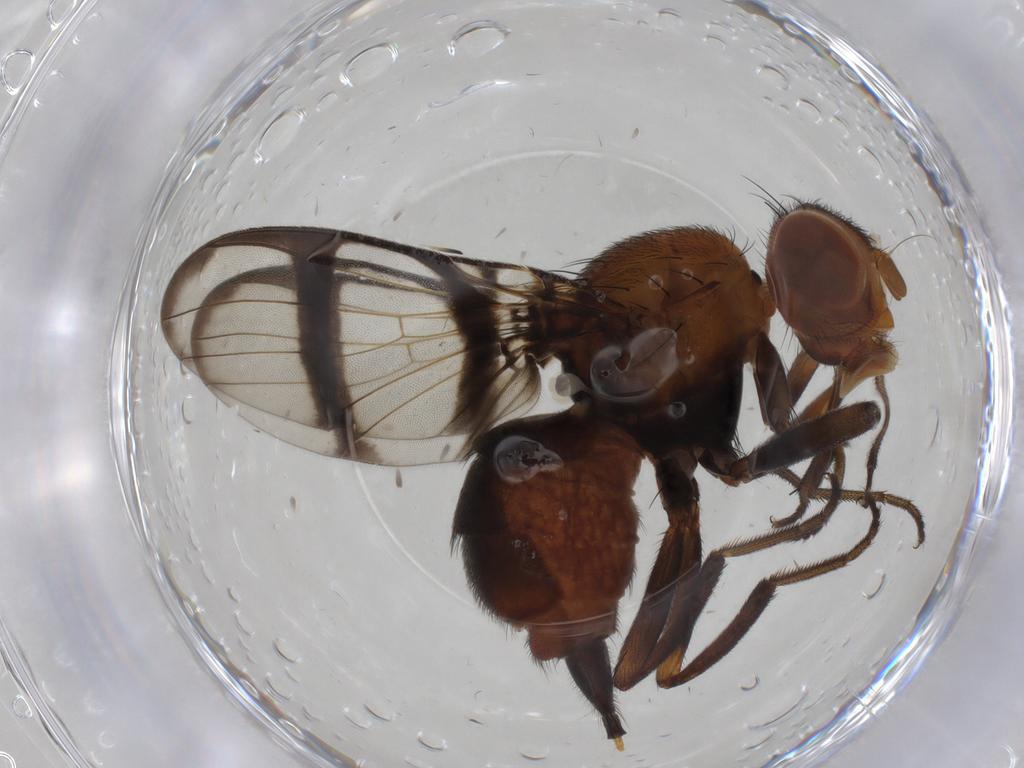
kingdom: Animalia
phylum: Arthropoda
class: Insecta
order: Diptera
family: Richardiidae
